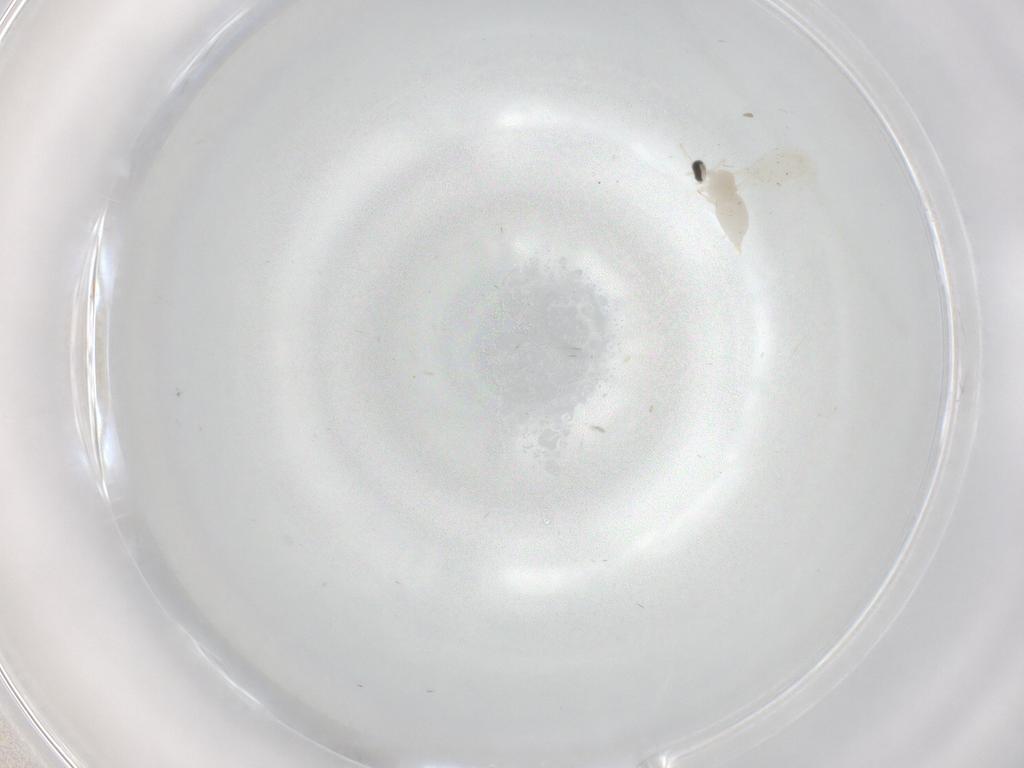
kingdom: Animalia
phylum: Arthropoda
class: Insecta
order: Diptera
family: Cecidomyiidae
